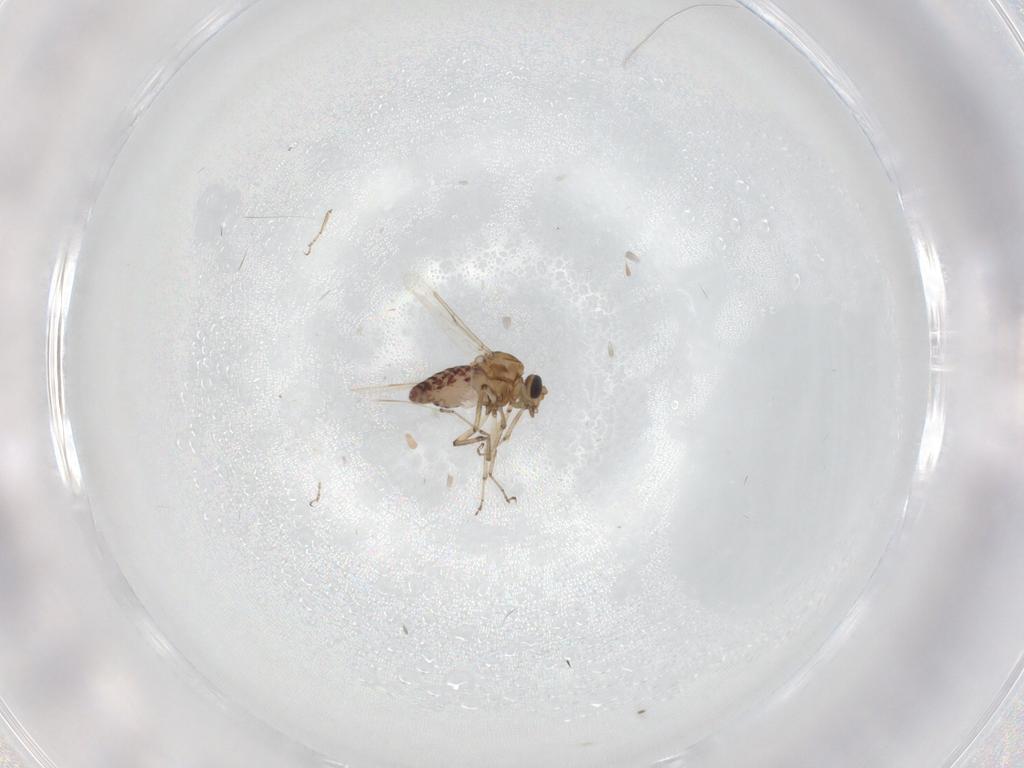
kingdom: Animalia
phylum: Arthropoda
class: Insecta
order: Diptera
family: Ceratopogonidae
